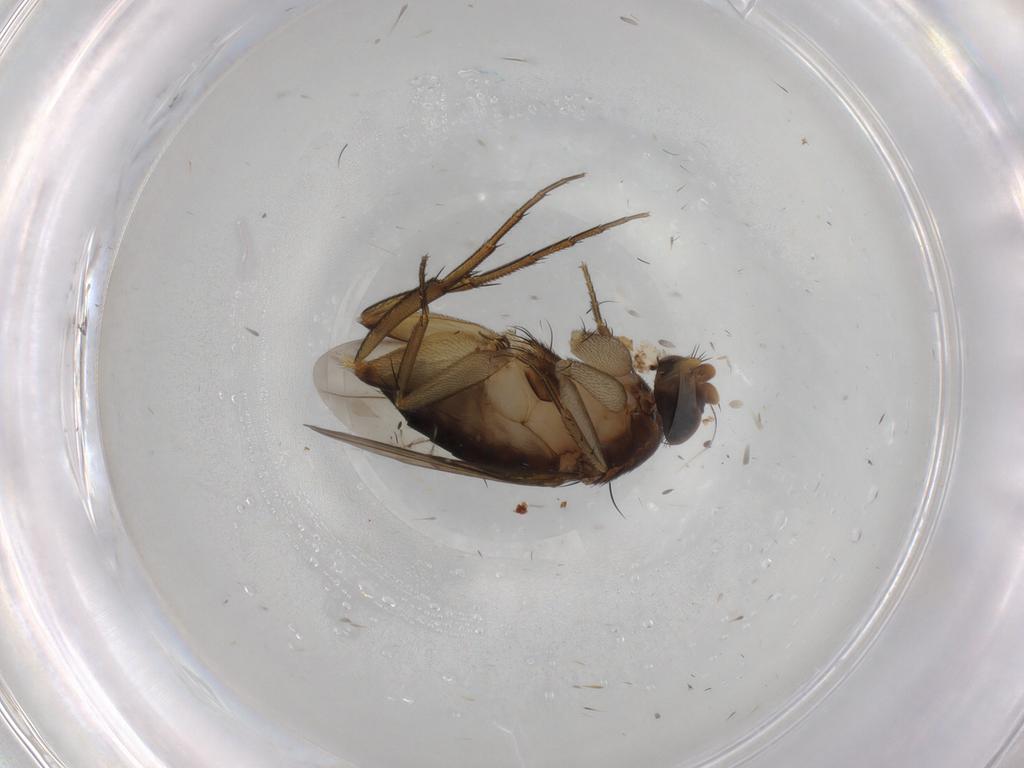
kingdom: Animalia
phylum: Arthropoda
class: Insecta
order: Diptera
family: Cecidomyiidae
